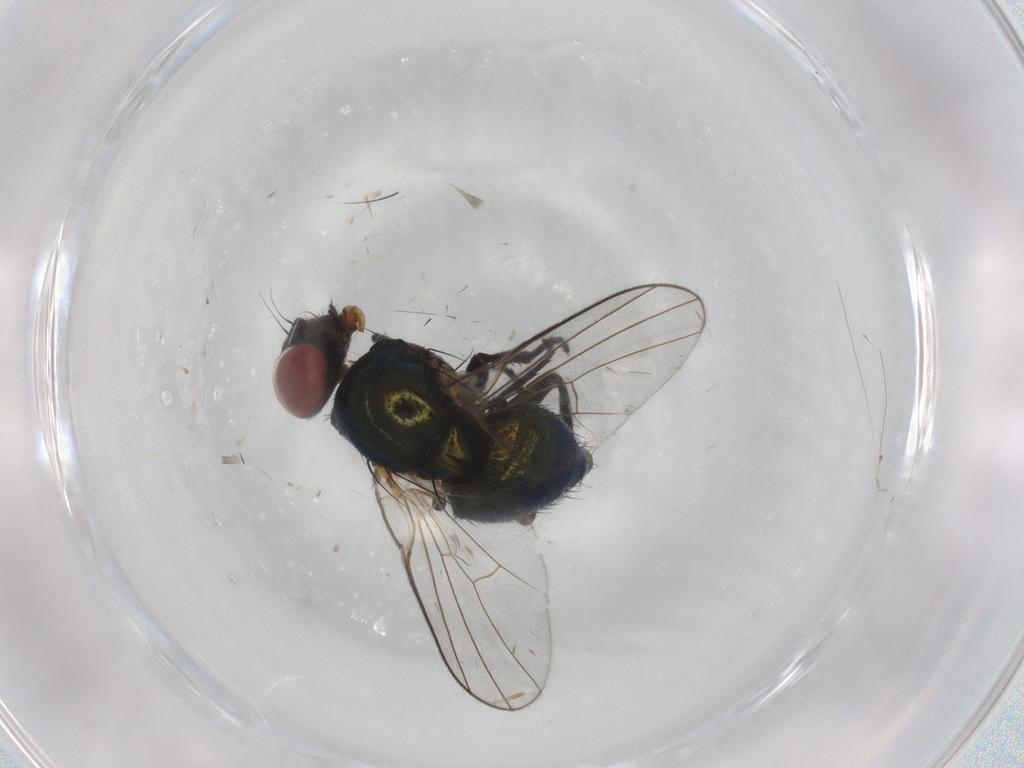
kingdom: Animalia
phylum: Arthropoda
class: Insecta
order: Diptera
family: Agromyzidae
